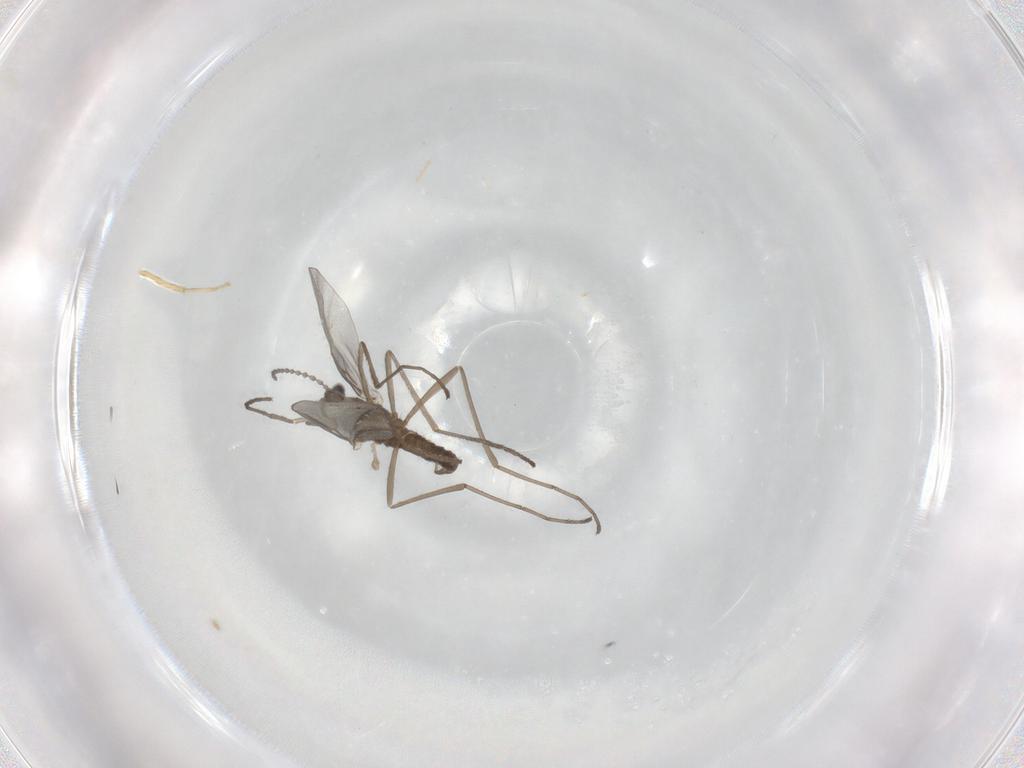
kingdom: Animalia
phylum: Arthropoda
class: Insecta
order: Diptera
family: Cecidomyiidae
